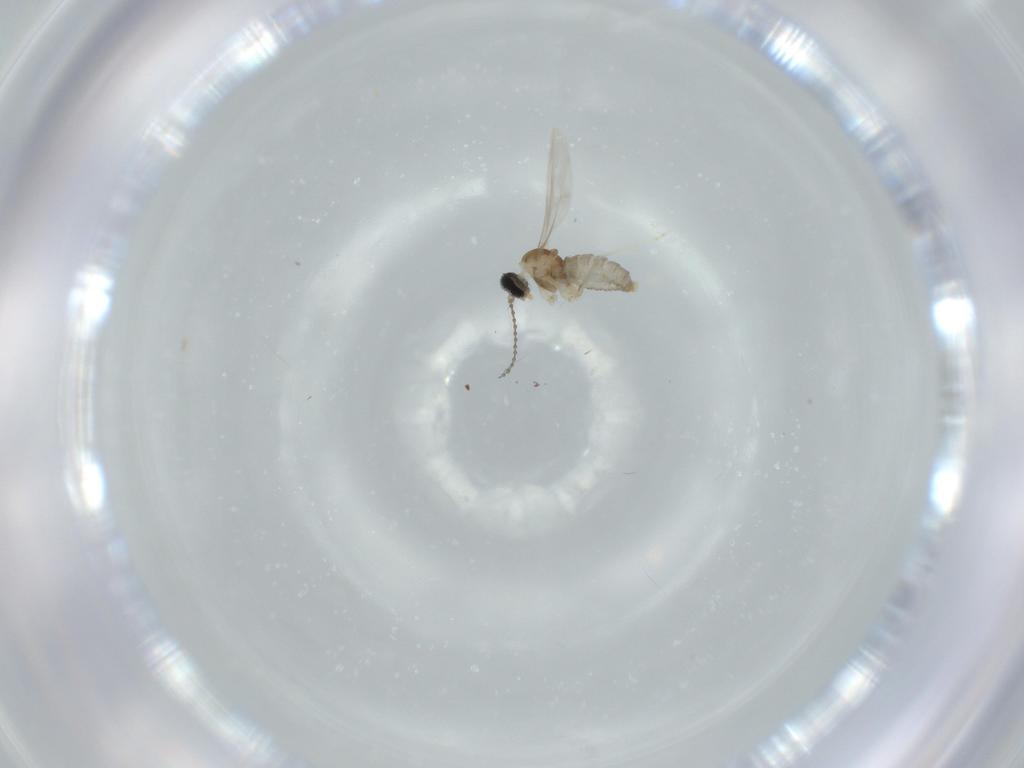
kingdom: Animalia
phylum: Arthropoda
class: Insecta
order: Diptera
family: Cecidomyiidae
